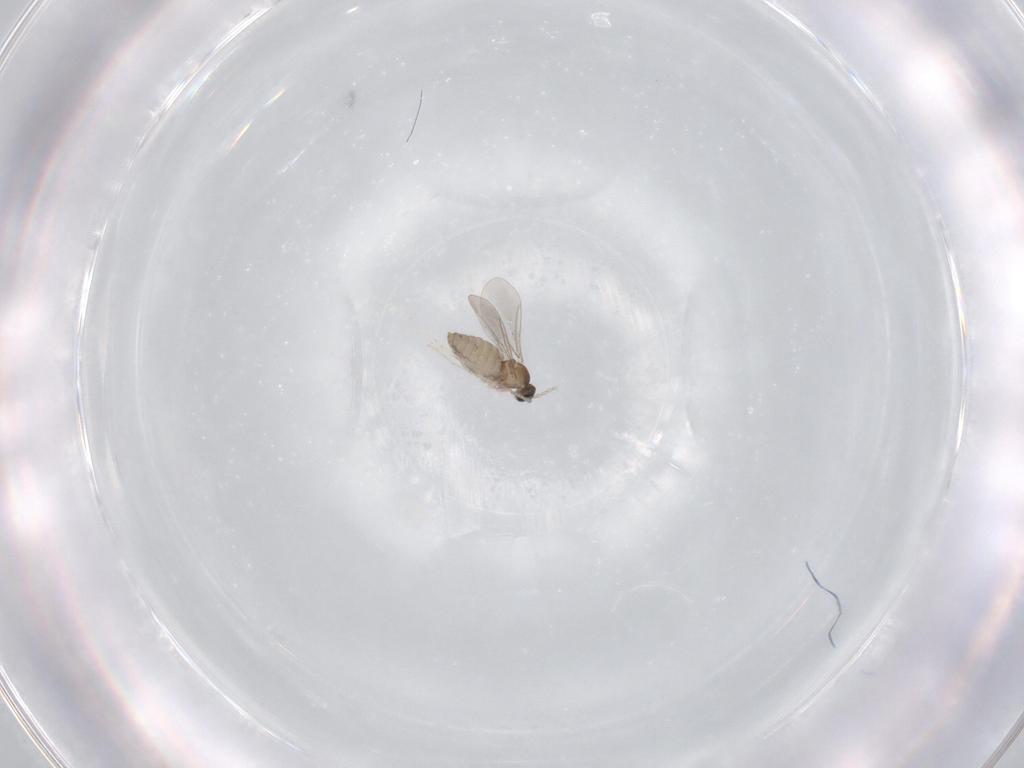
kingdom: Animalia
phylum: Arthropoda
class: Insecta
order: Diptera
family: Cecidomyiidae
